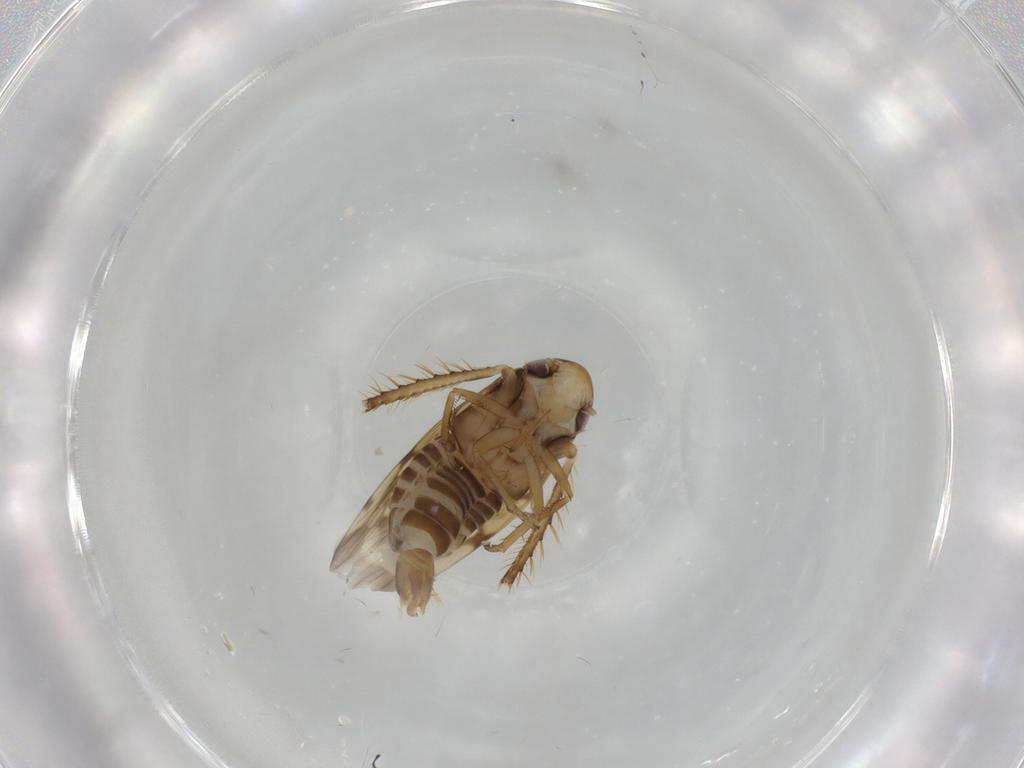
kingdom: Animalia
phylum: Arthropoda
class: Insecta
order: Hemiptera
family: Cicadellidae
